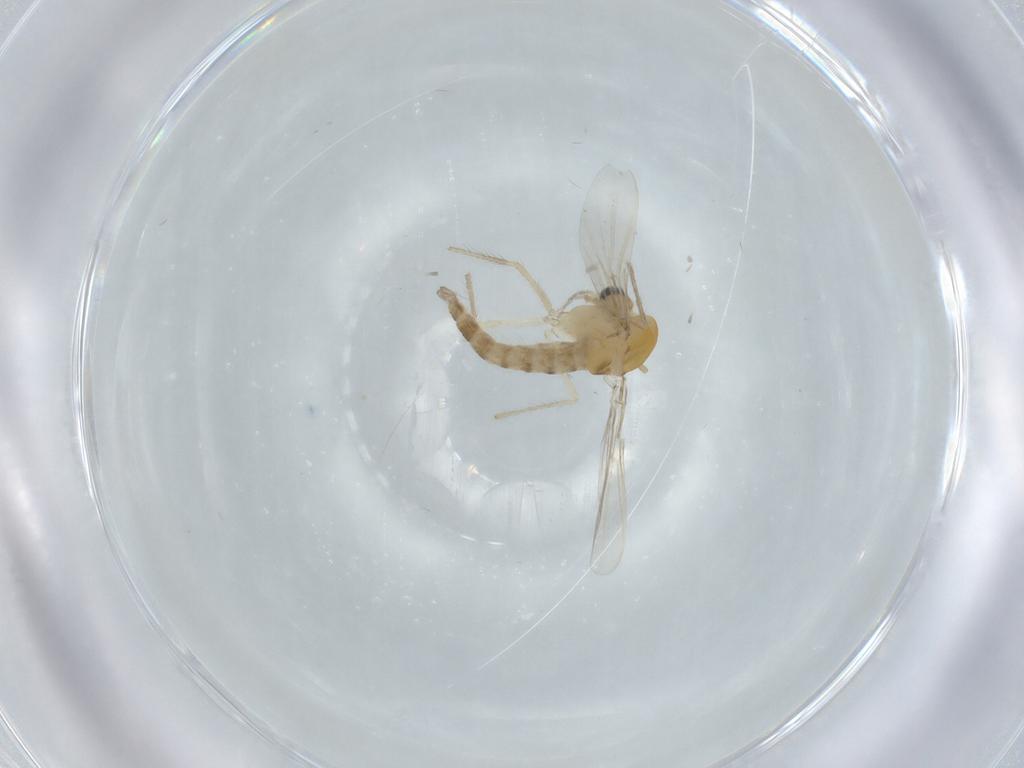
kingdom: Animalia
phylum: Arthropoda
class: Insecta
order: Diptera
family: Chironomidae
